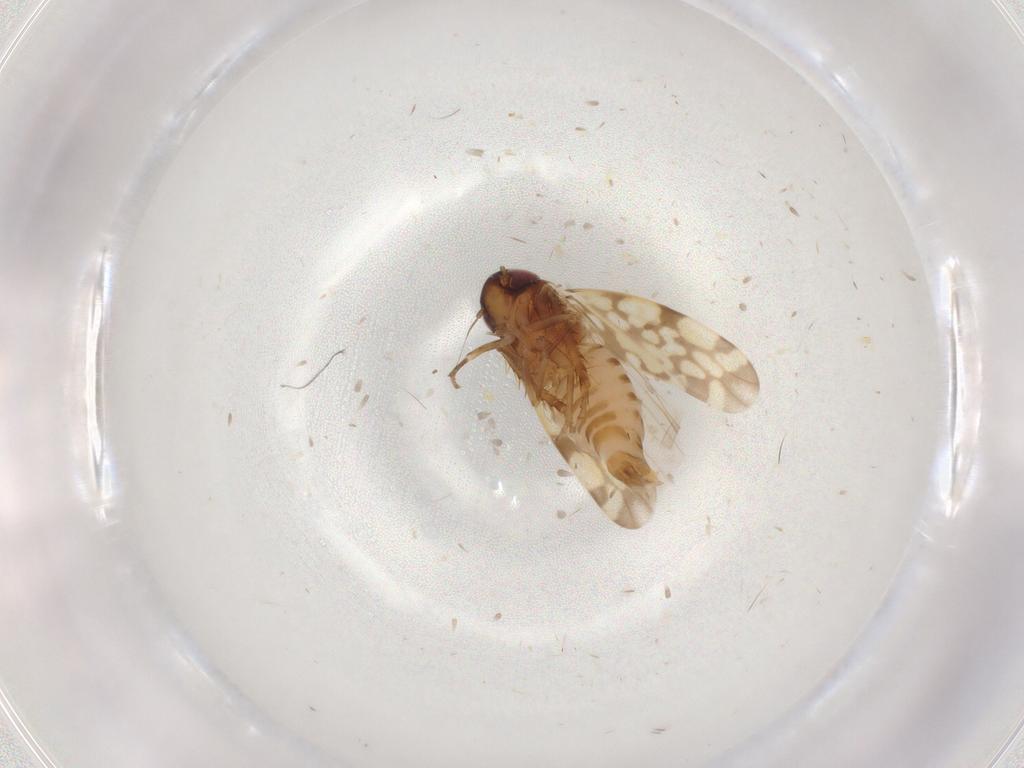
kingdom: Animalia
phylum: Arthropoda
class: Insecta
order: Hemiptera
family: Cicadellidae
